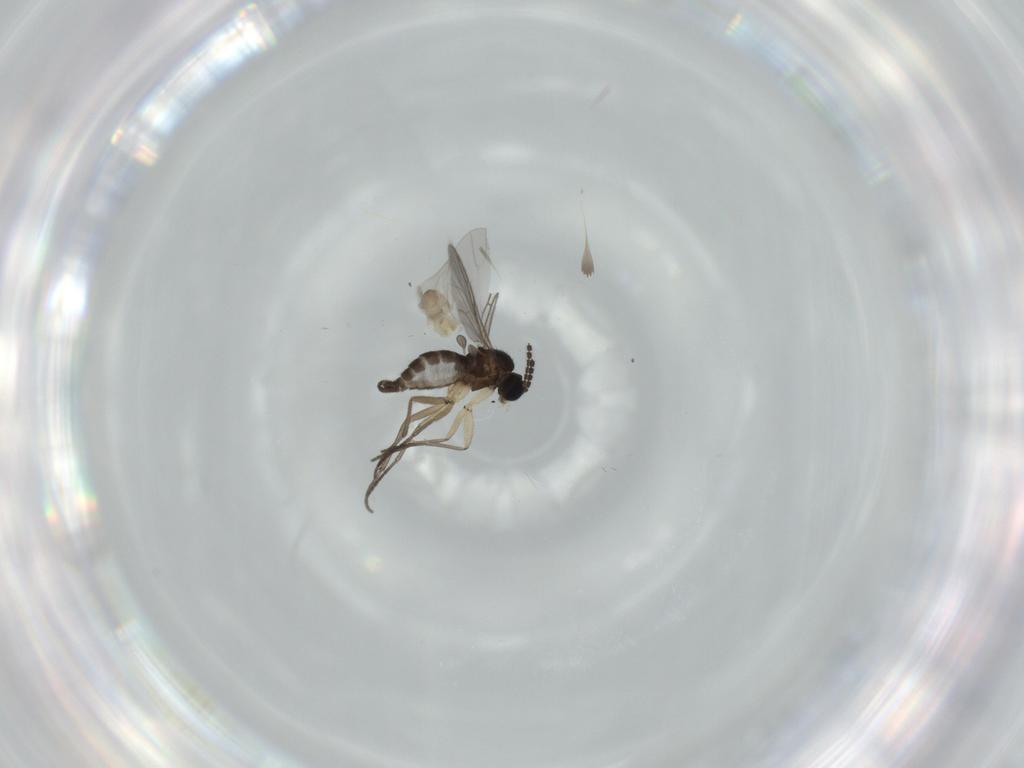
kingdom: Animalia
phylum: Arthropoda
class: Insecta
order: Diptera
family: Cecidomyiidae
